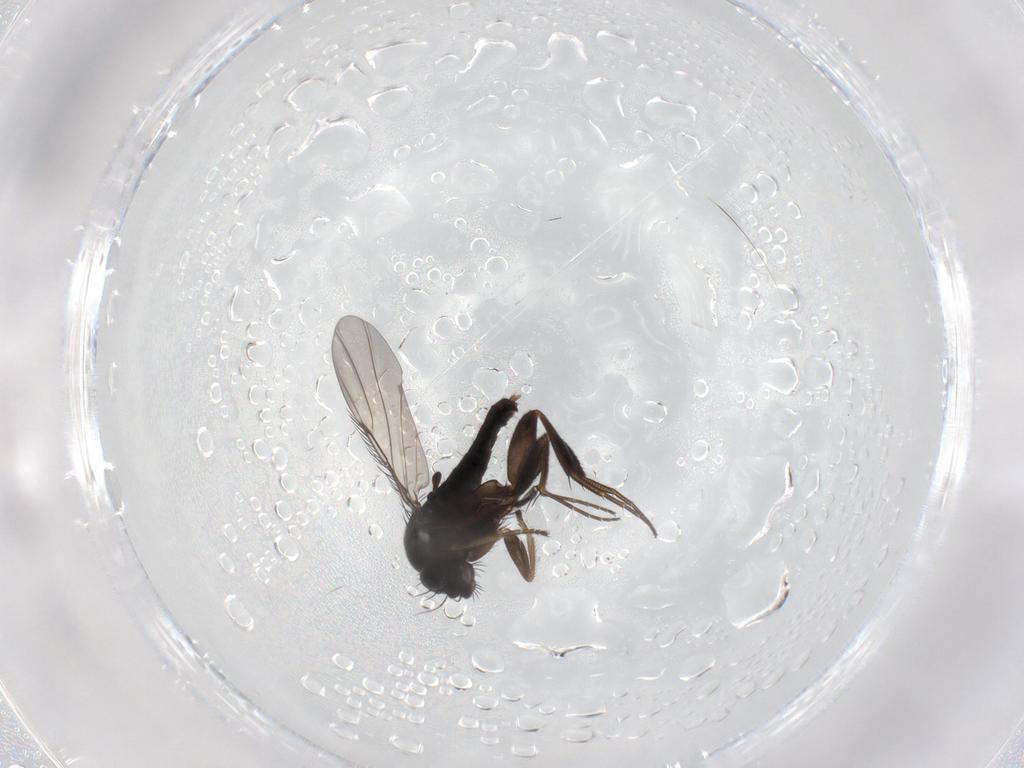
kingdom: Animalia
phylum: Arthropoda
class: Insecta
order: Diptera
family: Phoridae
